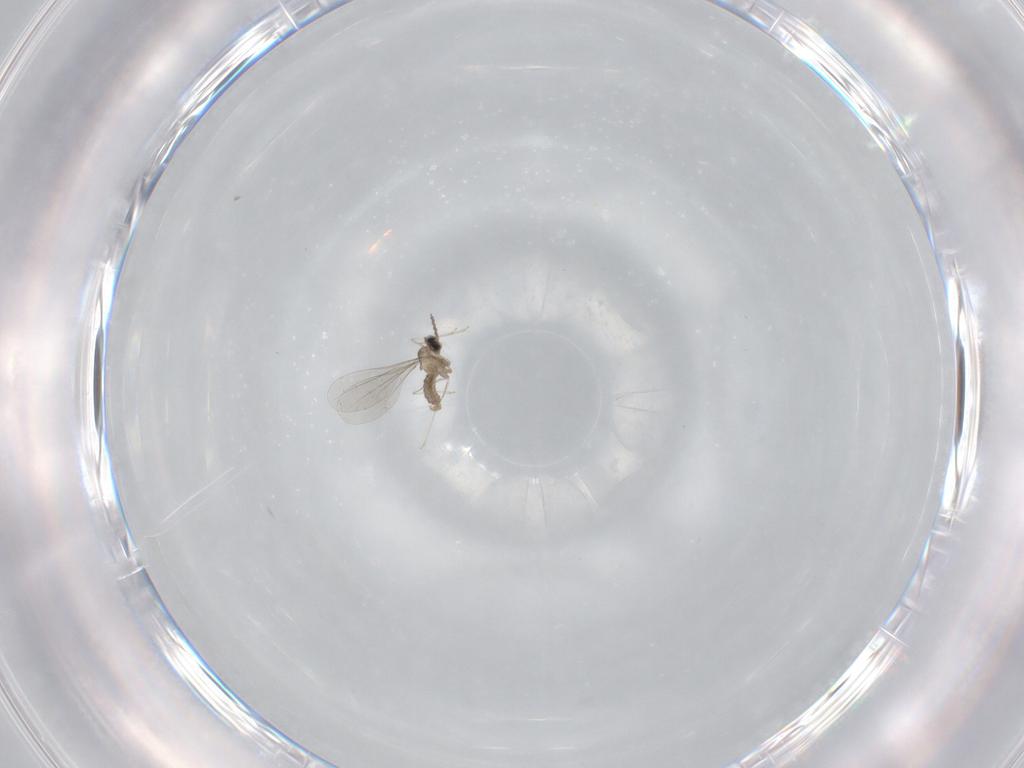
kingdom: Animalia
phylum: Arthropoda
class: Insecta
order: Diptera
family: Cecidomyiidae
